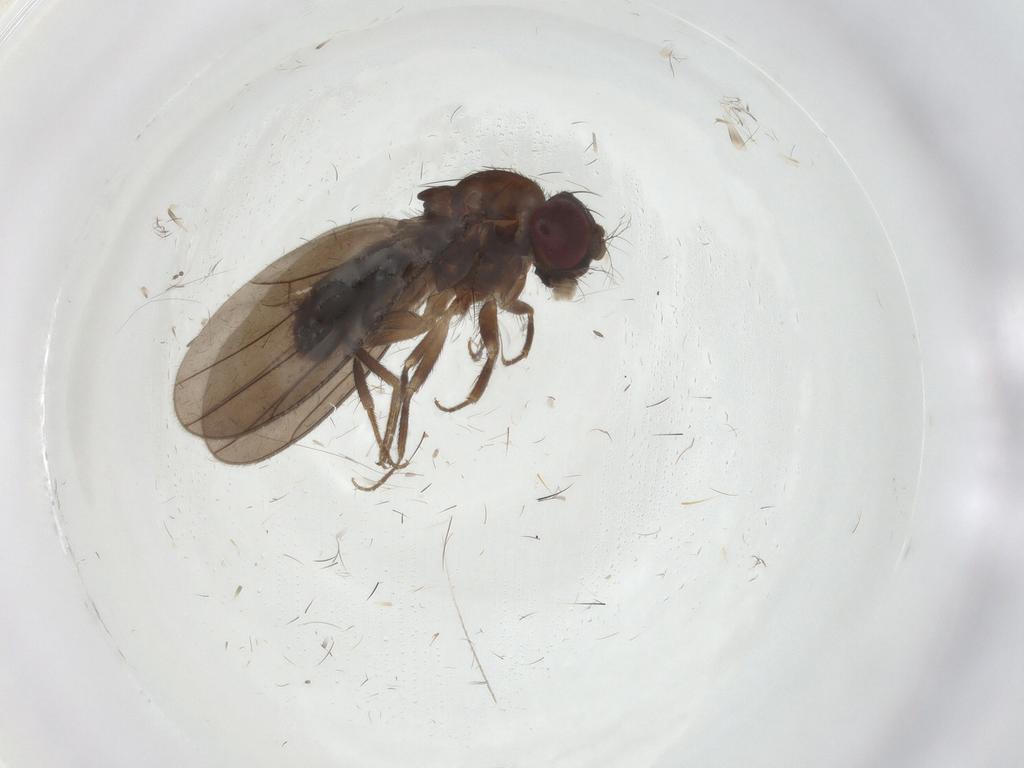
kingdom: Animalia
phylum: Arthropoda
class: Insecta
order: Diptera
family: Drosophilidae
